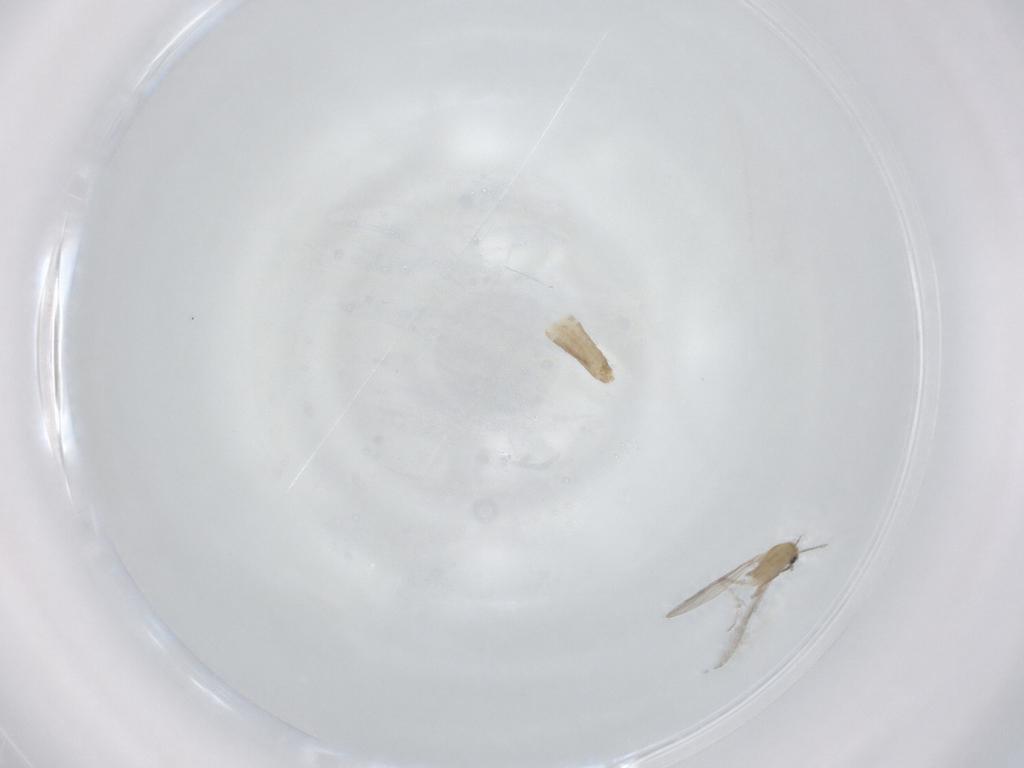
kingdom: Animalia
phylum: Arthropoda
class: Insecta
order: Diptera
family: Chironomidae
